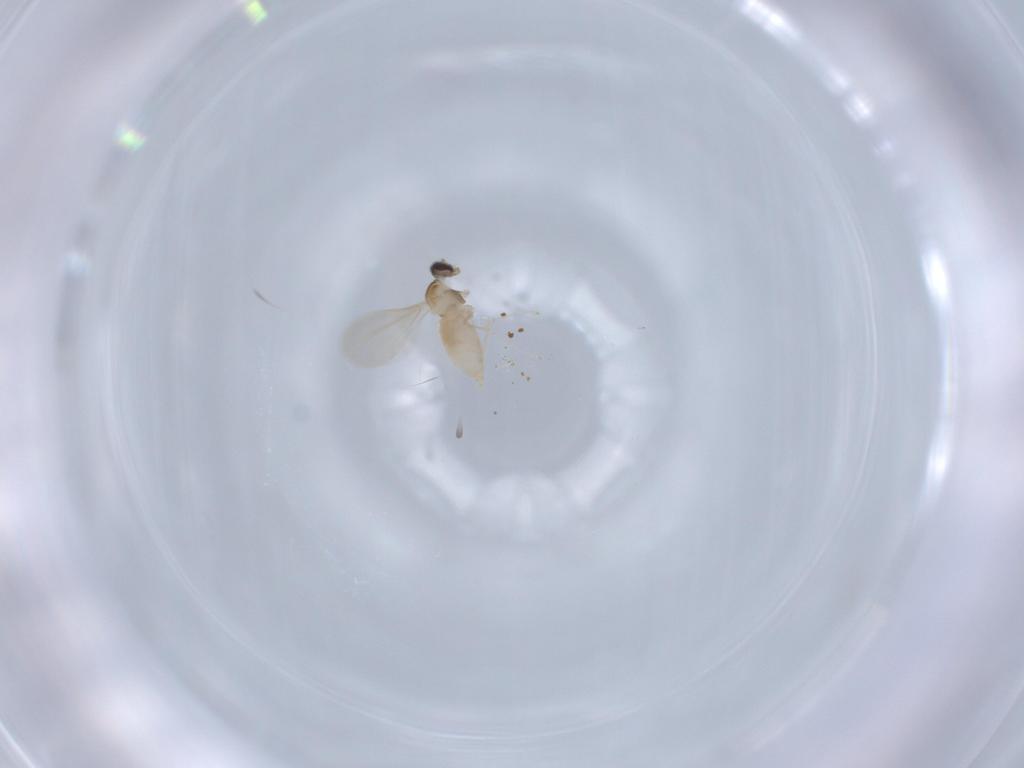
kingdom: Animalia
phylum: Arthropoda
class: Insecta
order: Diptera
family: Cecidomyiidae
